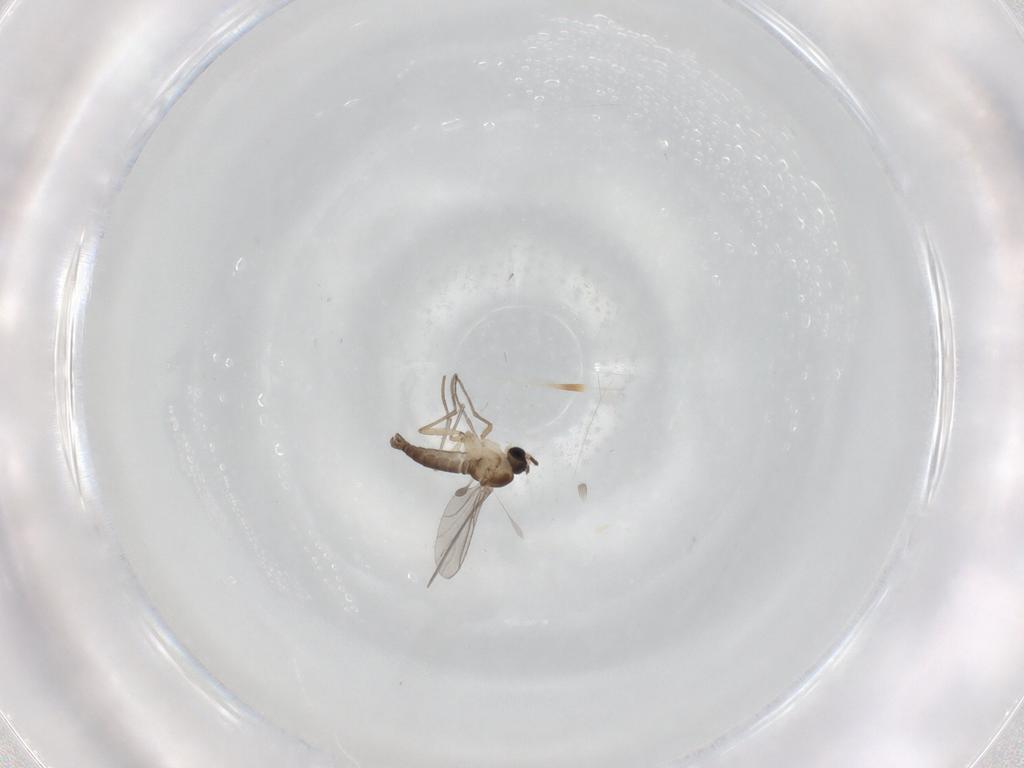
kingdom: Animalia
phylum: Arthropoda
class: Insecta
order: Diptera
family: Sciaridae
